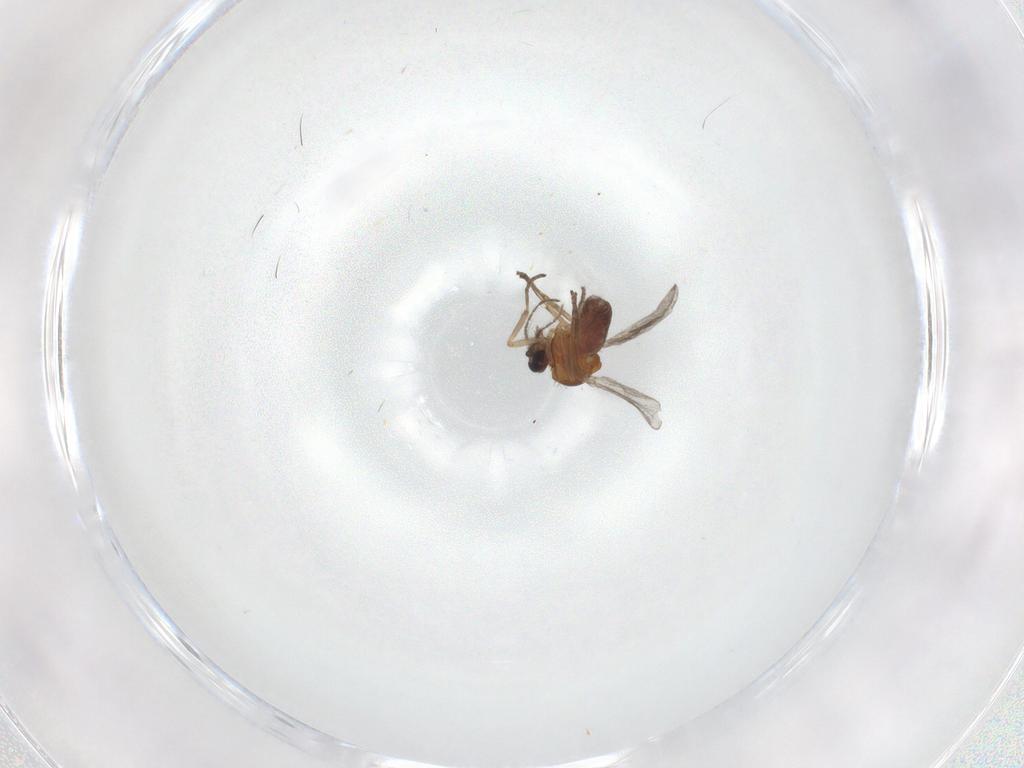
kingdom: Animalia
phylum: Arthropoda
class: Insecta
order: Diptera
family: Ceratopogonidae
